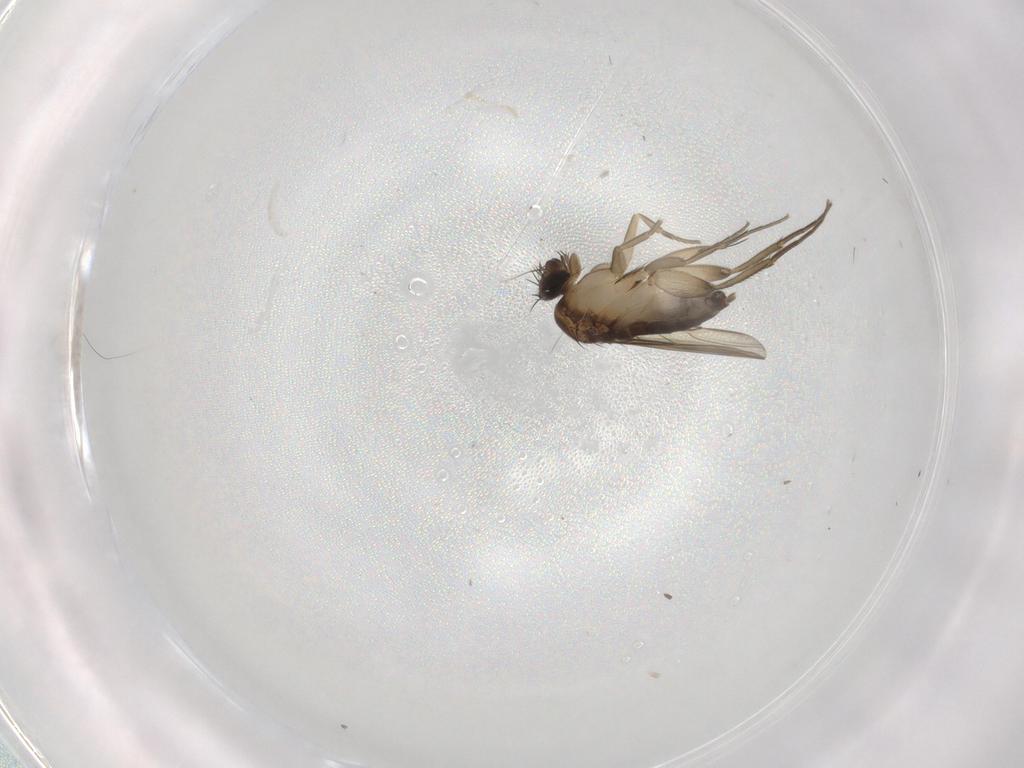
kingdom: Animalia
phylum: Arthropoda
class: Insecta
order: Diptera
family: Phoridae
